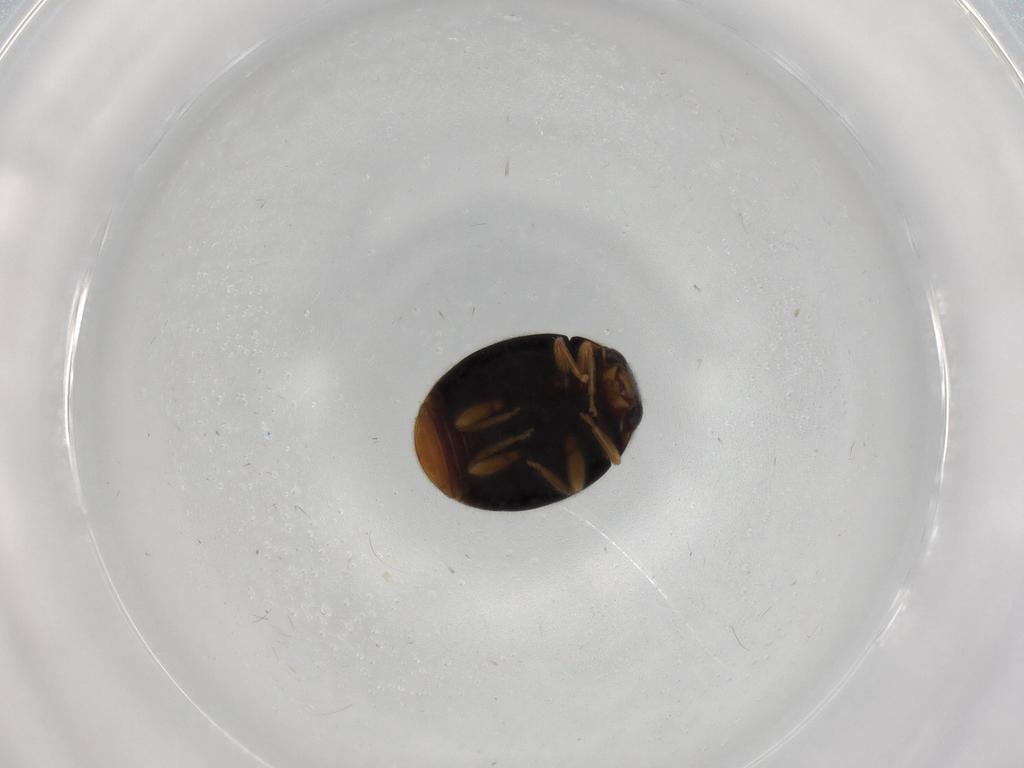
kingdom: Animalia
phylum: Arthropoda
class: Insecta
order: Coleoptera
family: Coccinellidae
